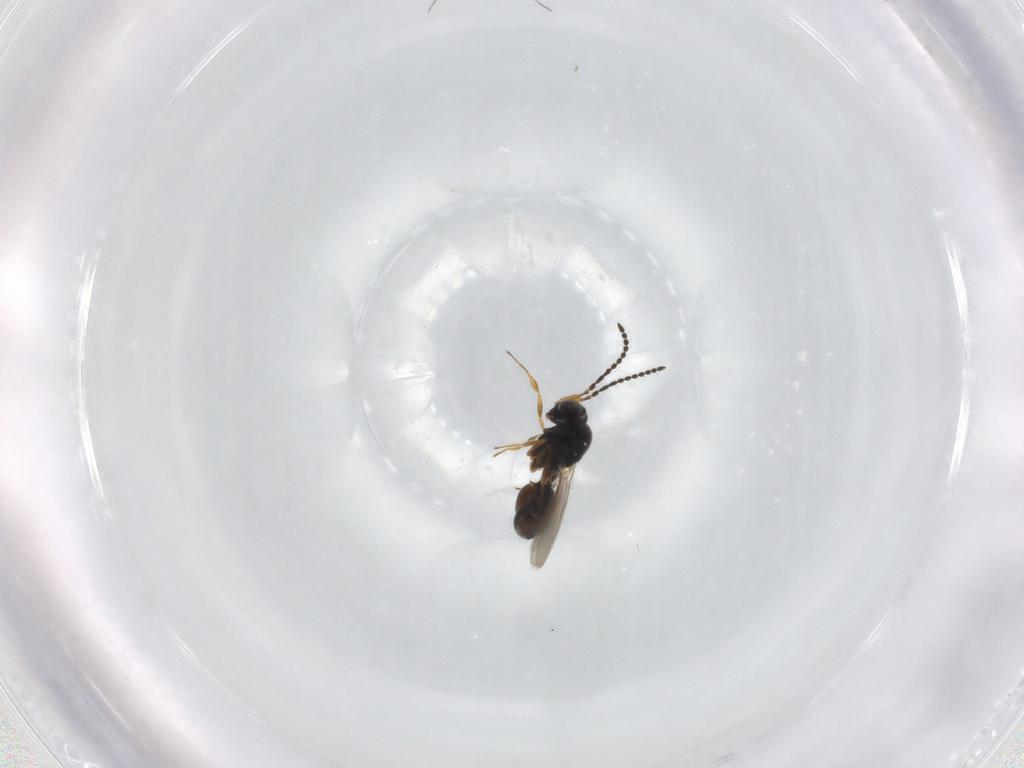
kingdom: Animalia
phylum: Arthropoda
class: Insecta
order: Hymenoptera
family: Scelionidae
